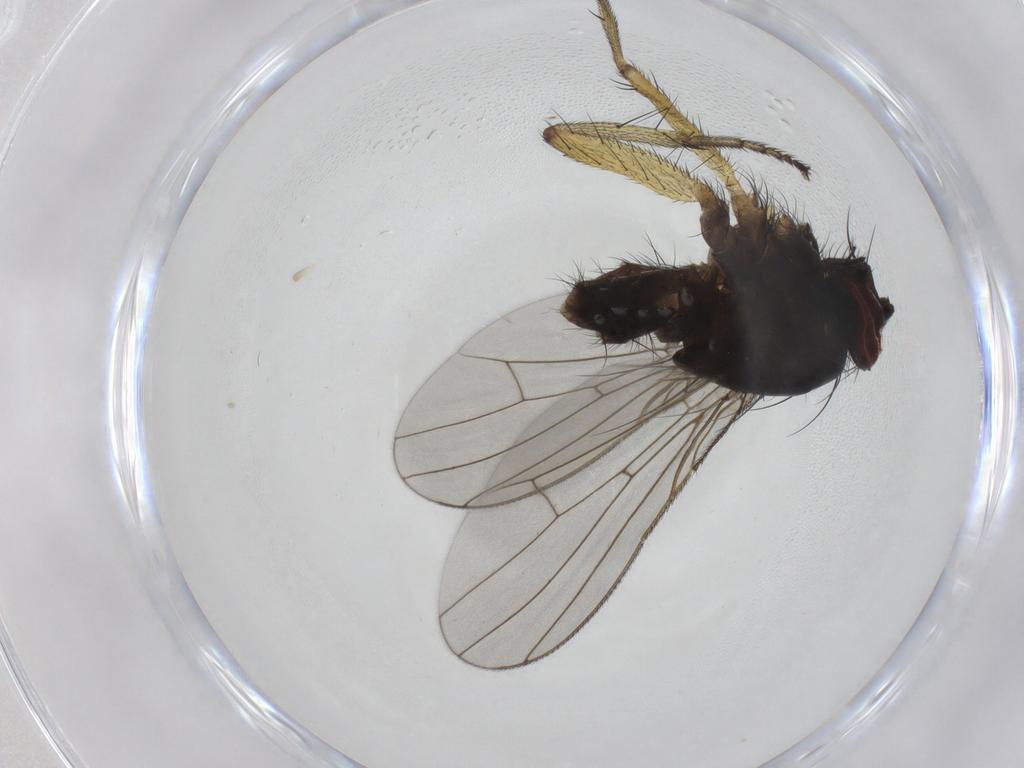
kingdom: Animalia
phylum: Arthropoda
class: Insecta
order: Diptera
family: Muscidae
